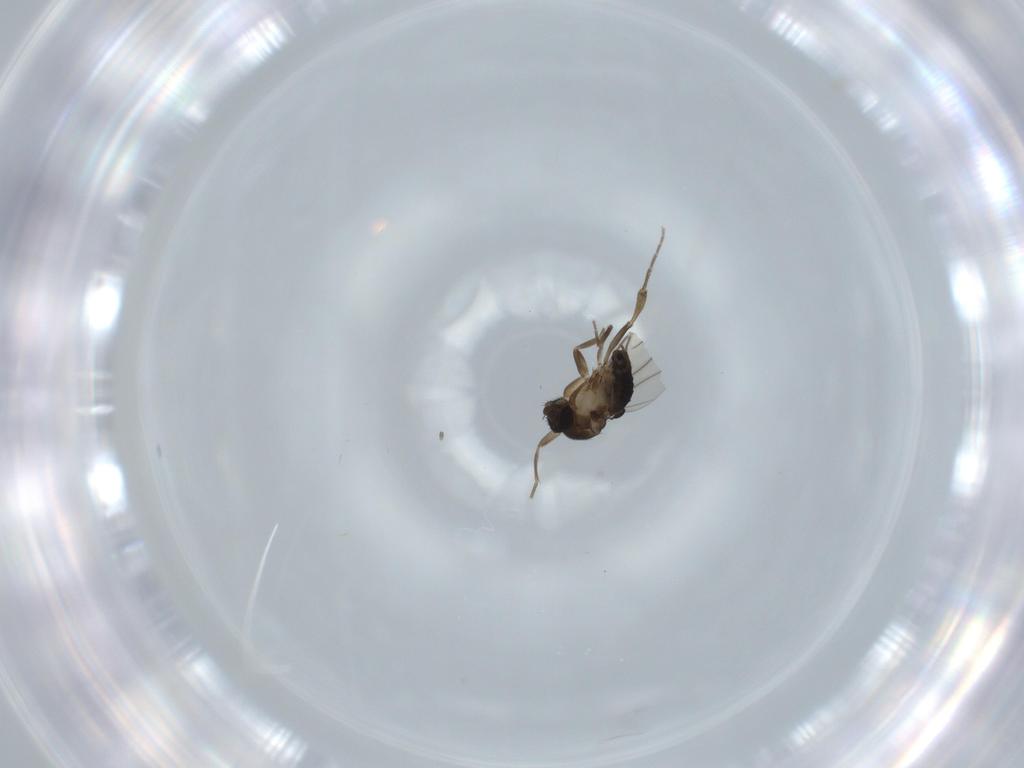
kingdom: Animalia
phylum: Arthropoda
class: Insecta
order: Diptera
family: Phoridae
